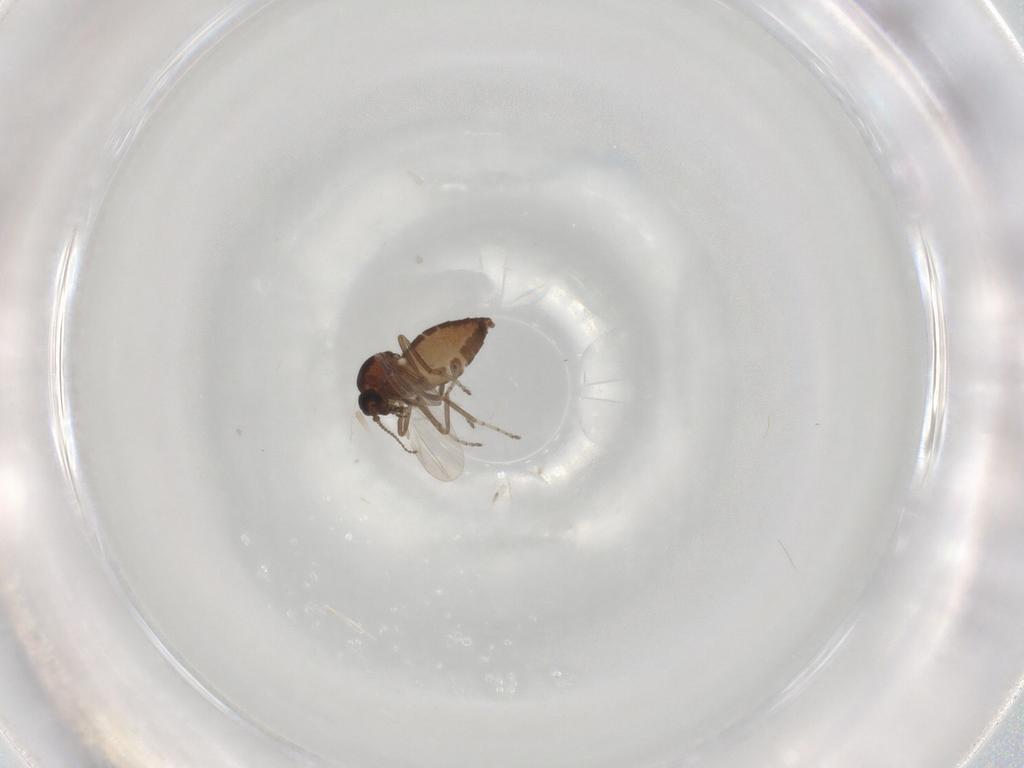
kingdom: Animalia
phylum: Arthropoda
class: Insecta
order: Diptera
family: Ceratopogonidae
